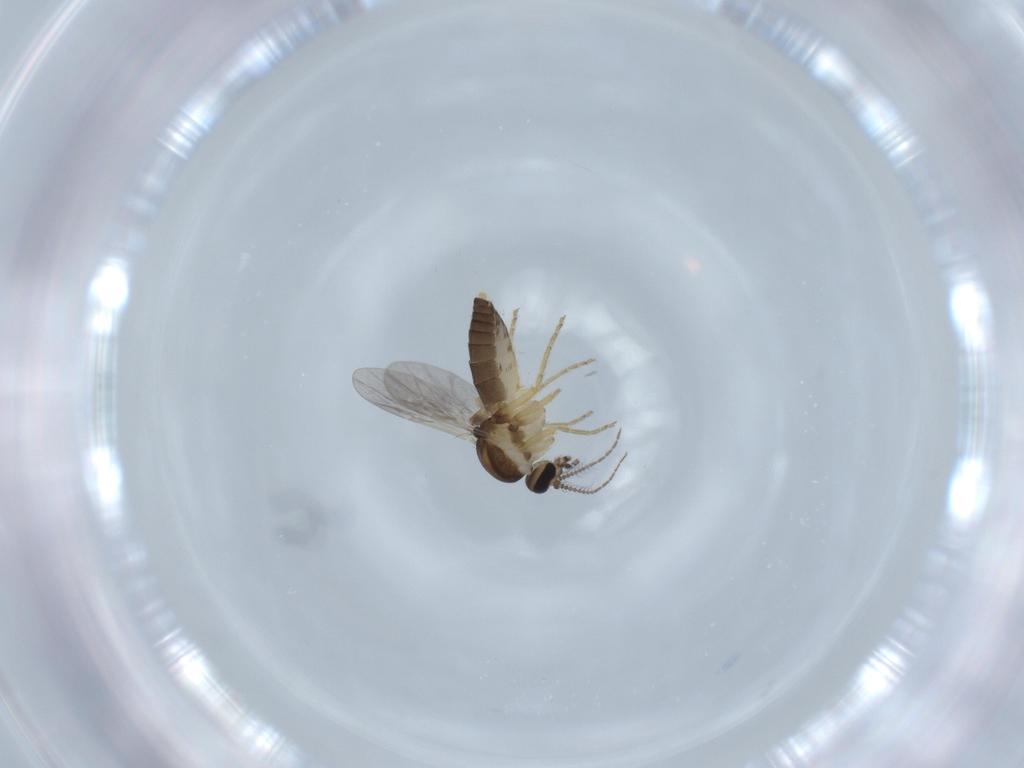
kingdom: Animalia
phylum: Arthropoda
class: Insecta
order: Diptera
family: Ceratopogonidae
